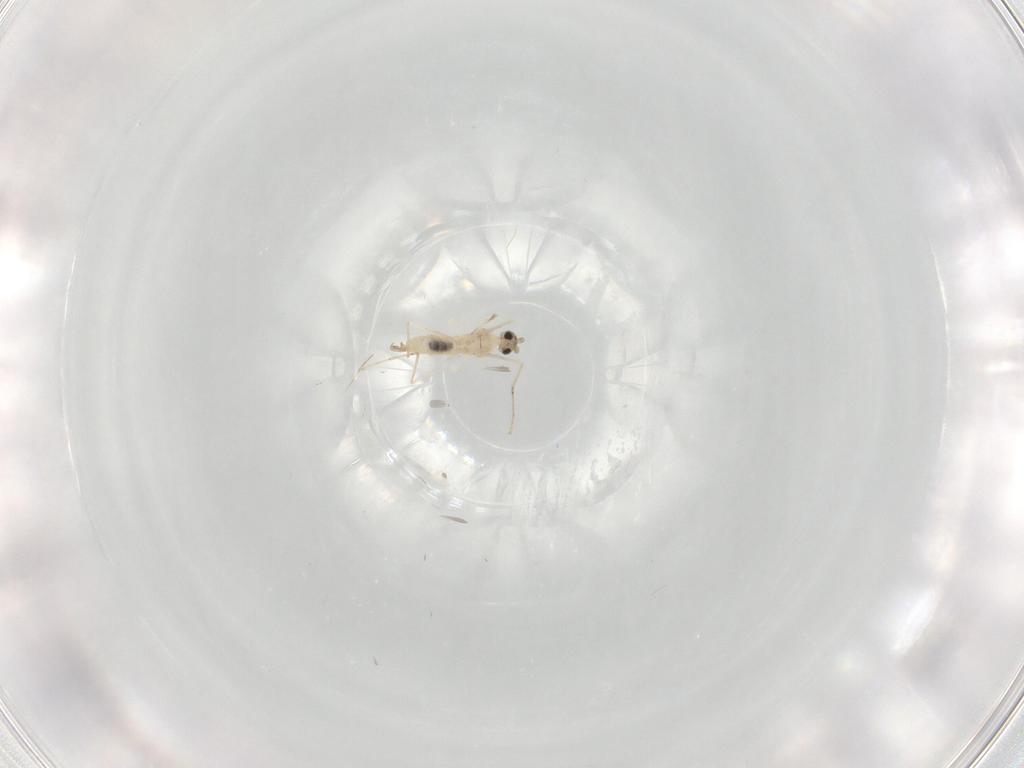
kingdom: Animalia
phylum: Arthropoda
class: Insecta
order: Diptera
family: Cecidomyiidae
